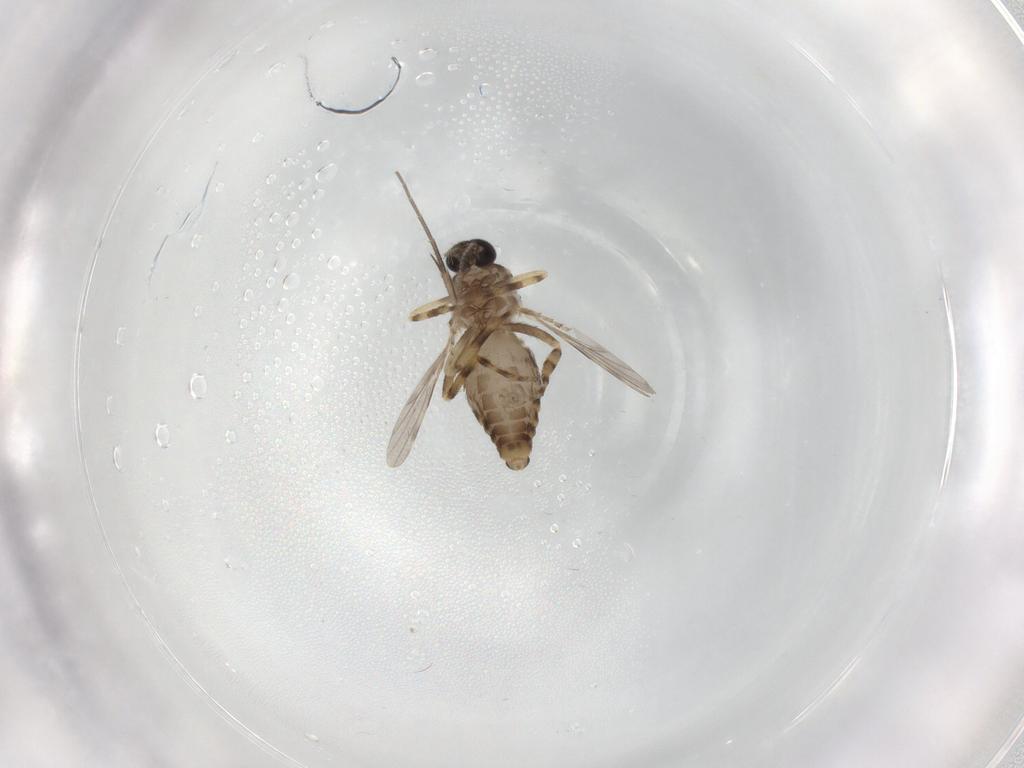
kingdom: Animalia
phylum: Arthropoda
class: Insecta
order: Diptera
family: Ceratopogonidae
